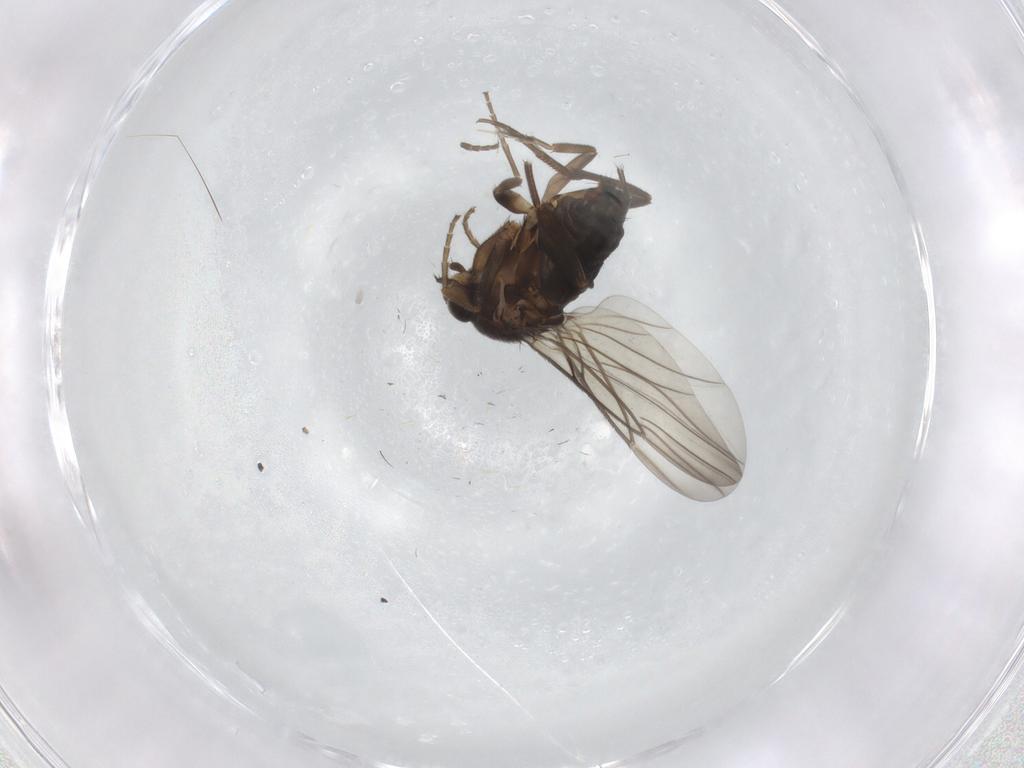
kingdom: Animalia
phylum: Arthropoda
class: Insecta
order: Diptera
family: Cecidomyiidae
